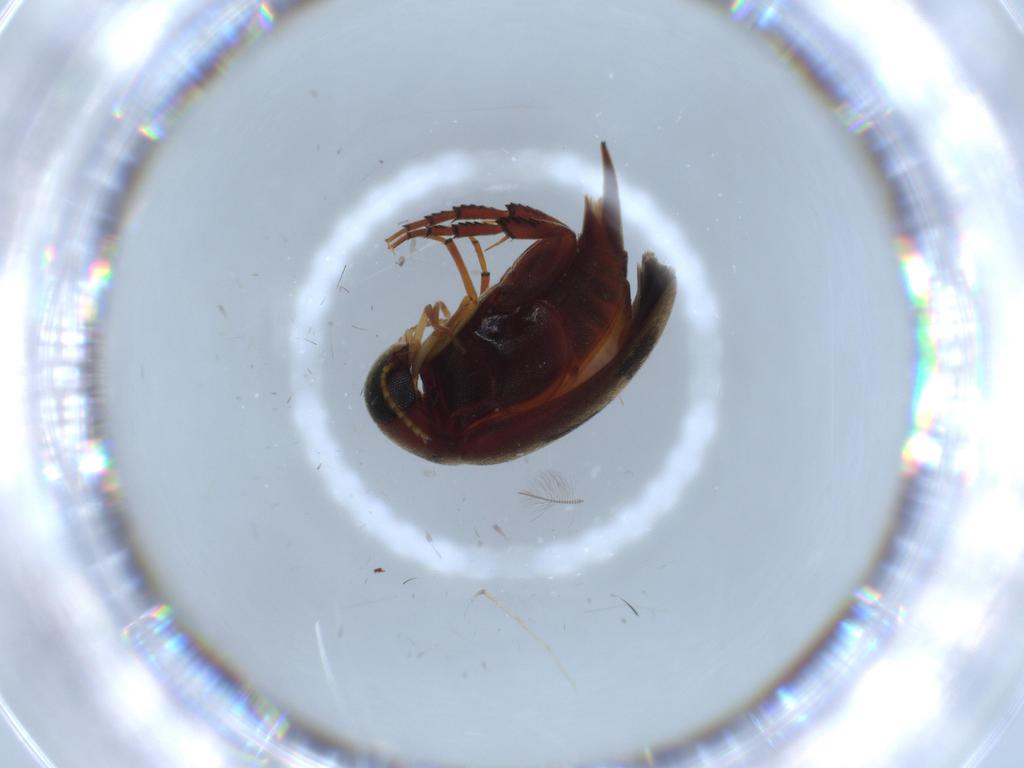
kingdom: Animalia
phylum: Arthropoda
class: Insecta
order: Coleoptera
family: Mordellidae
